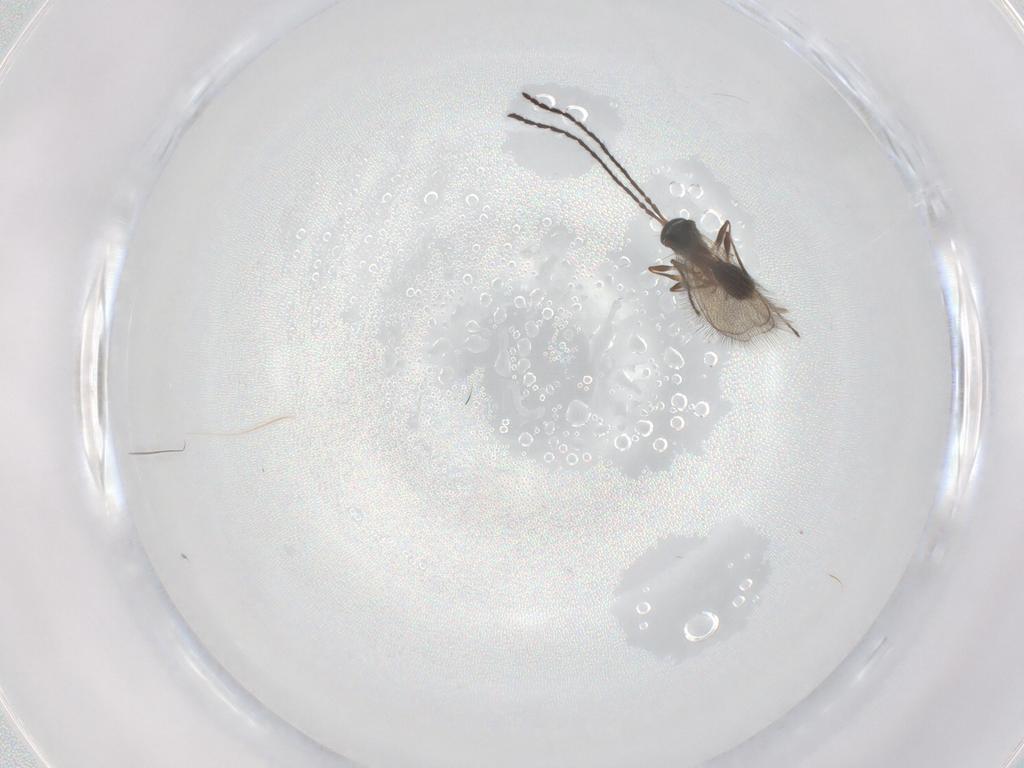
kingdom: Animalia
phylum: Arthropoda
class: Insecta
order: Hymenoptera
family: Diapriidae
